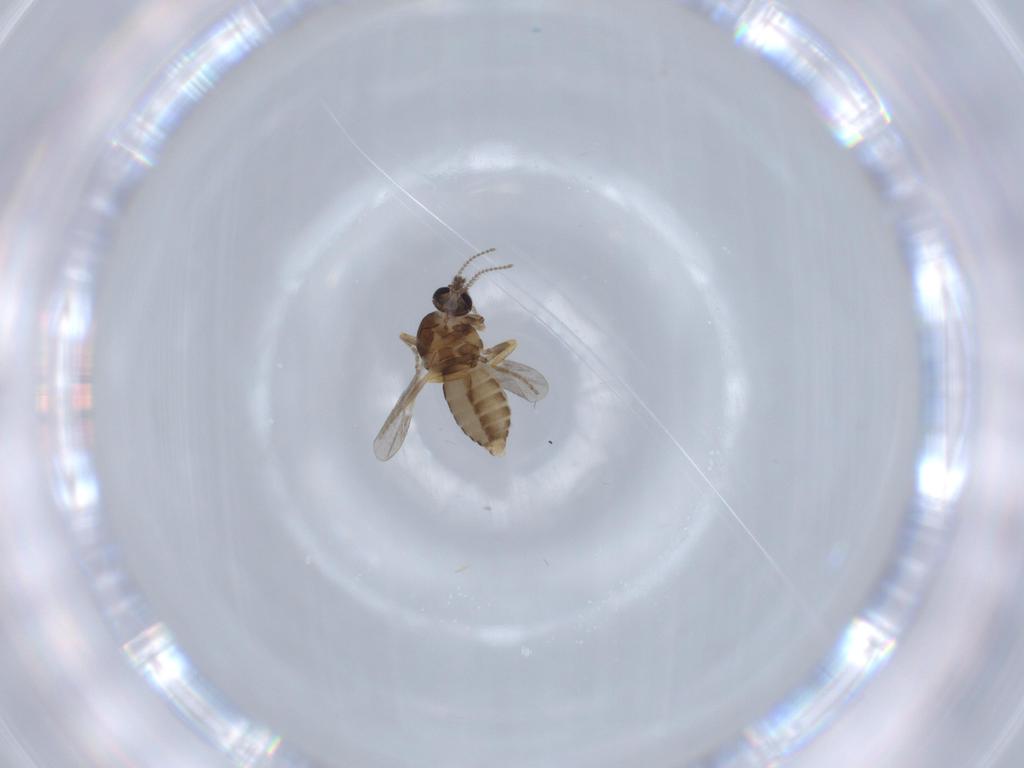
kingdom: Animalia
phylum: Arthropoda
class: Insecta
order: Diptera
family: Ceratopogonidae
